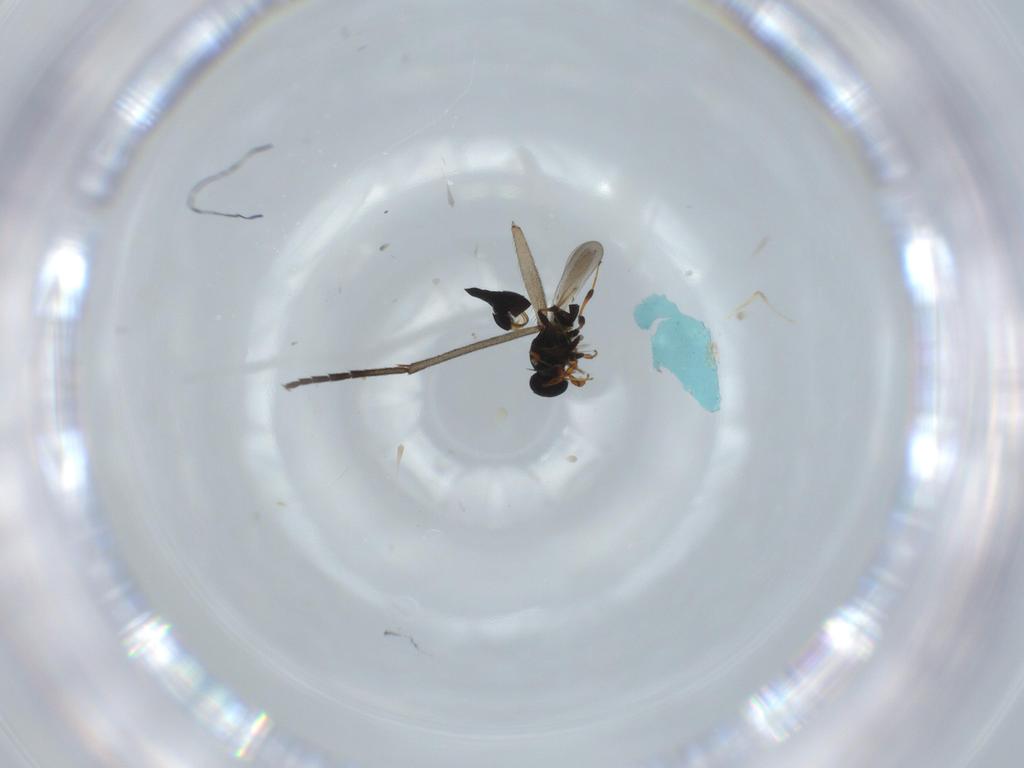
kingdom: Animalia
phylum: Arthropoda
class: Insecta
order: Hymenoptera
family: Platygastridae
